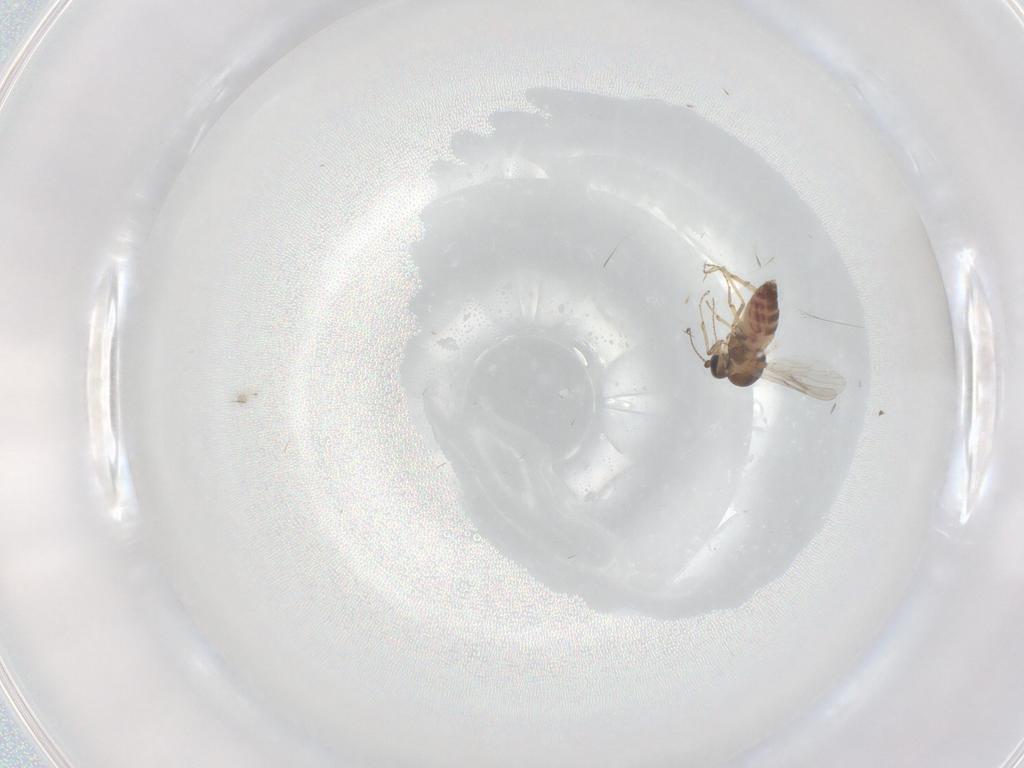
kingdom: Animalia
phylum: Arthropoda
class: Insecta
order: Diptera
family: Ceratopogonidae
